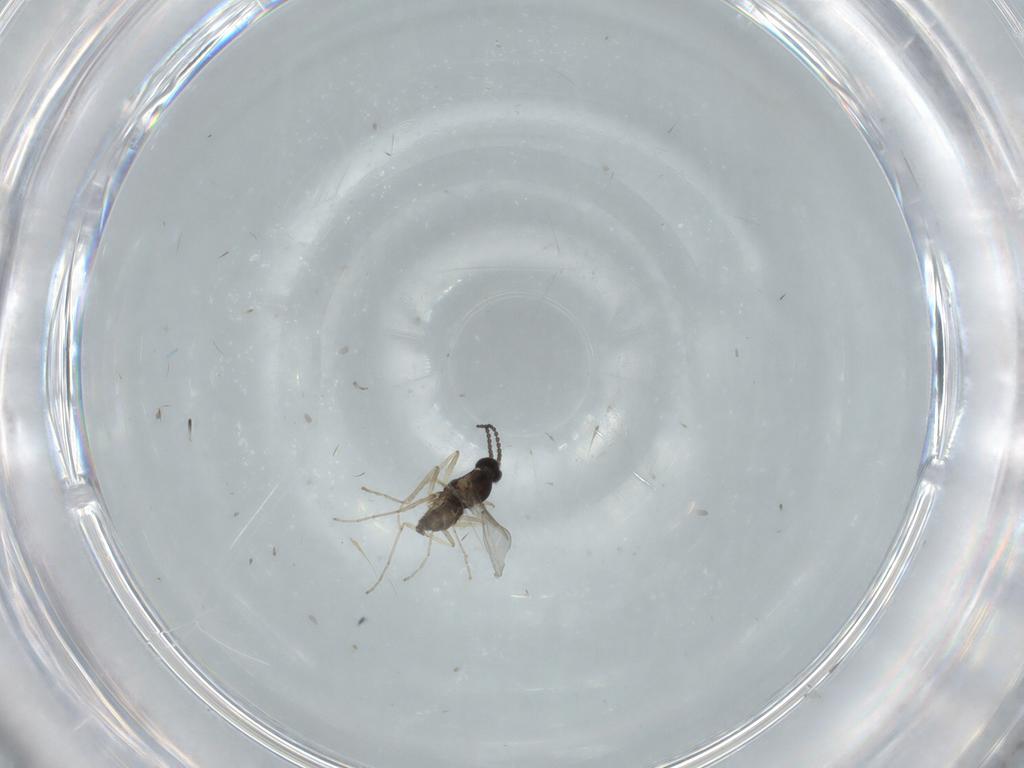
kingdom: Animalia
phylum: Arthropoda
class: Insecta
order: Diptera
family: Cecidomyiidae
